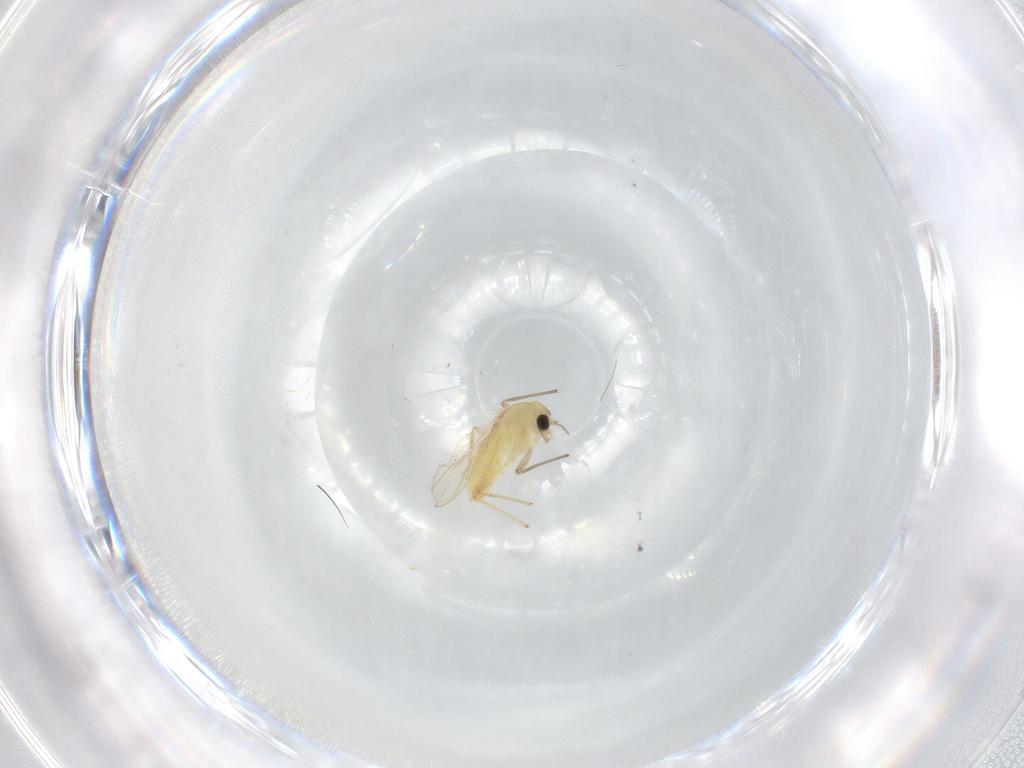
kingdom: Animalia
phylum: Arthropoda
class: Insecta
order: Diptera
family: Chironomidae
